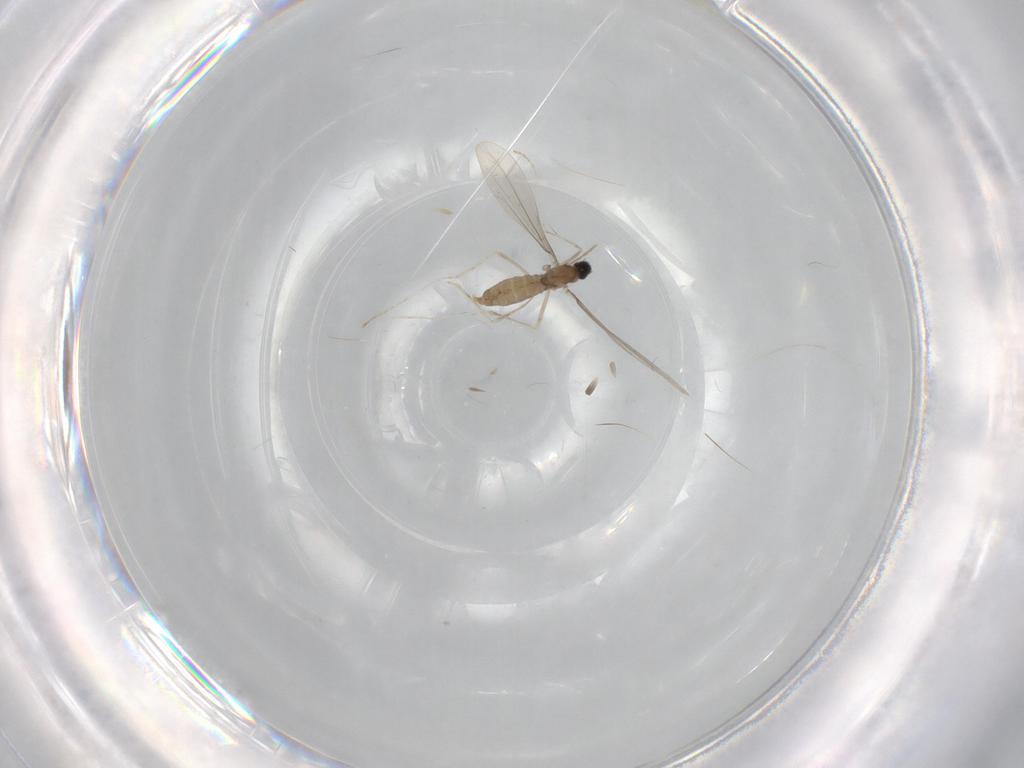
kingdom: Animalia
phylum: Arthropoda
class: Insecta
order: Diptera
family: Cecidomyiidae
